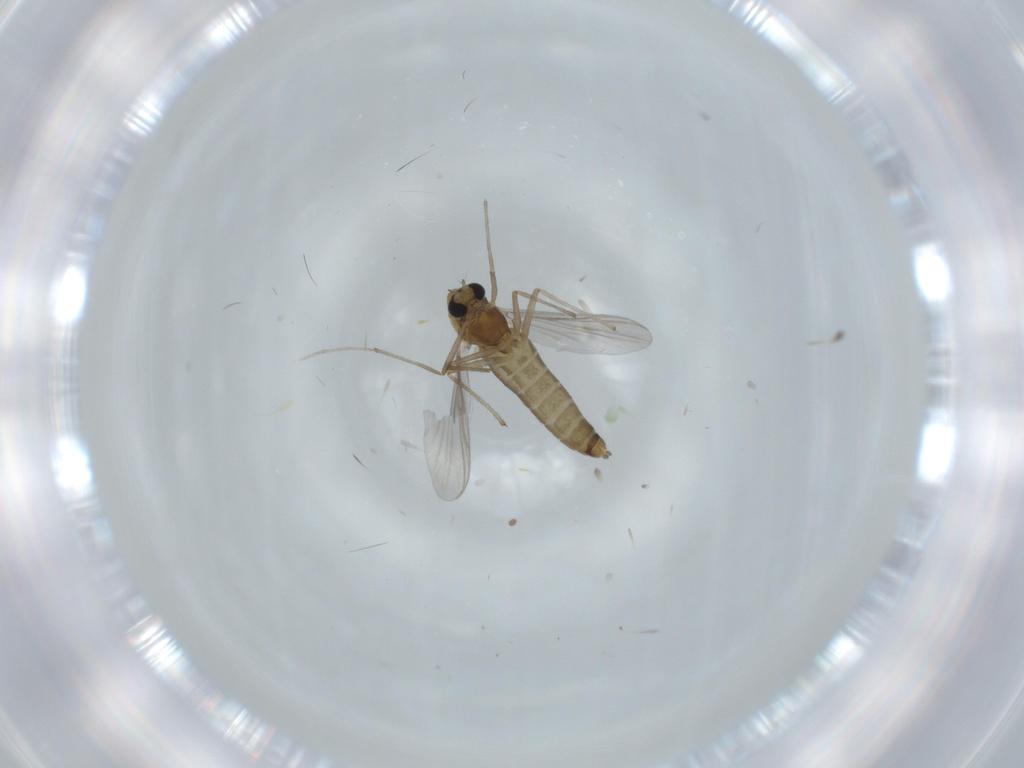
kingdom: Animalia
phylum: Arthropoda
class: Insecta
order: Diptera
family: Chironomidae
